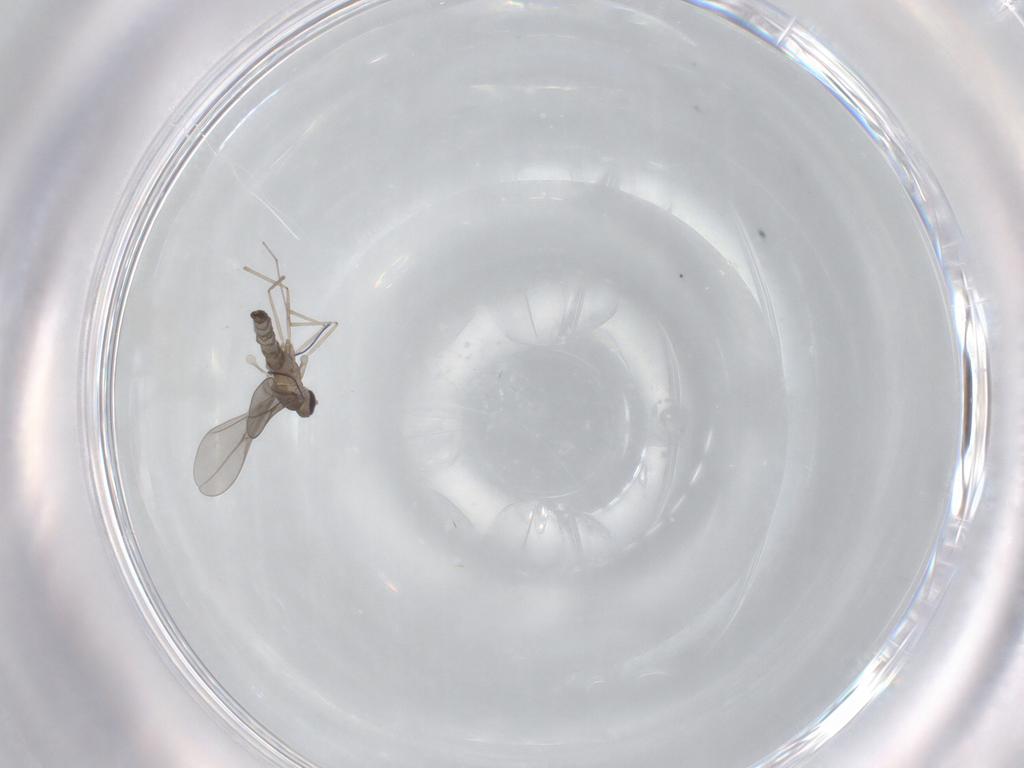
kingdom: Animalia
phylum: Arthropoda
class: Insecta
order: Diptera
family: Cecidomyiidae
